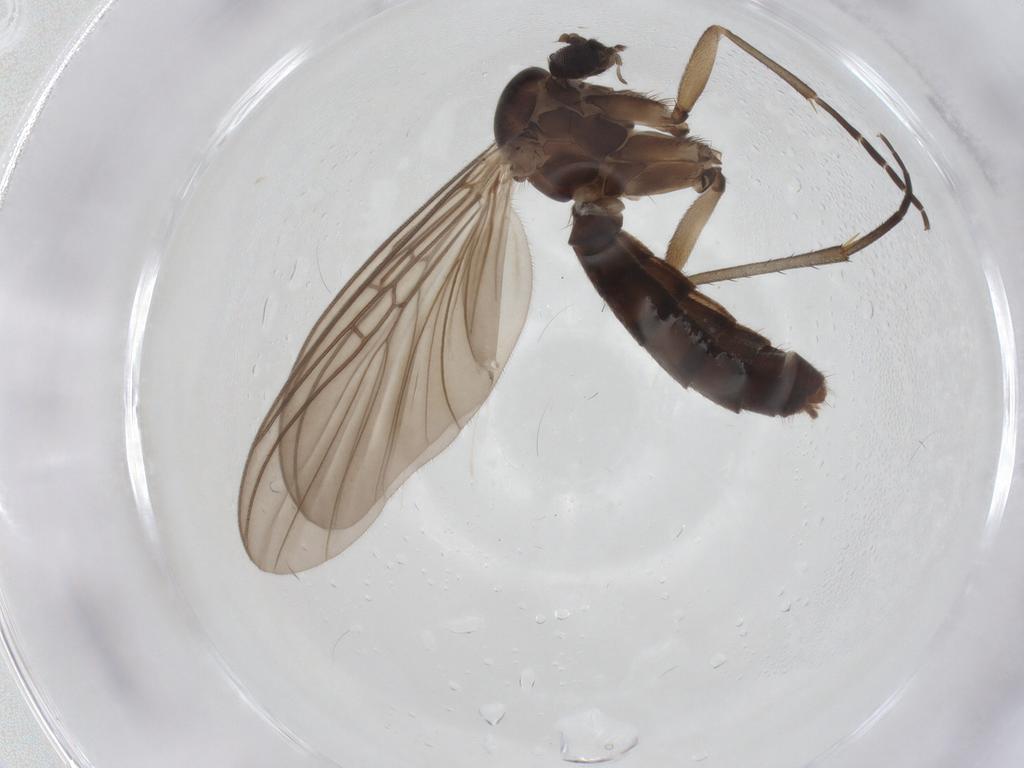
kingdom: Animalia
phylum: Arthropoda
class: Insecta
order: Diptera
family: Mycetophilidae
